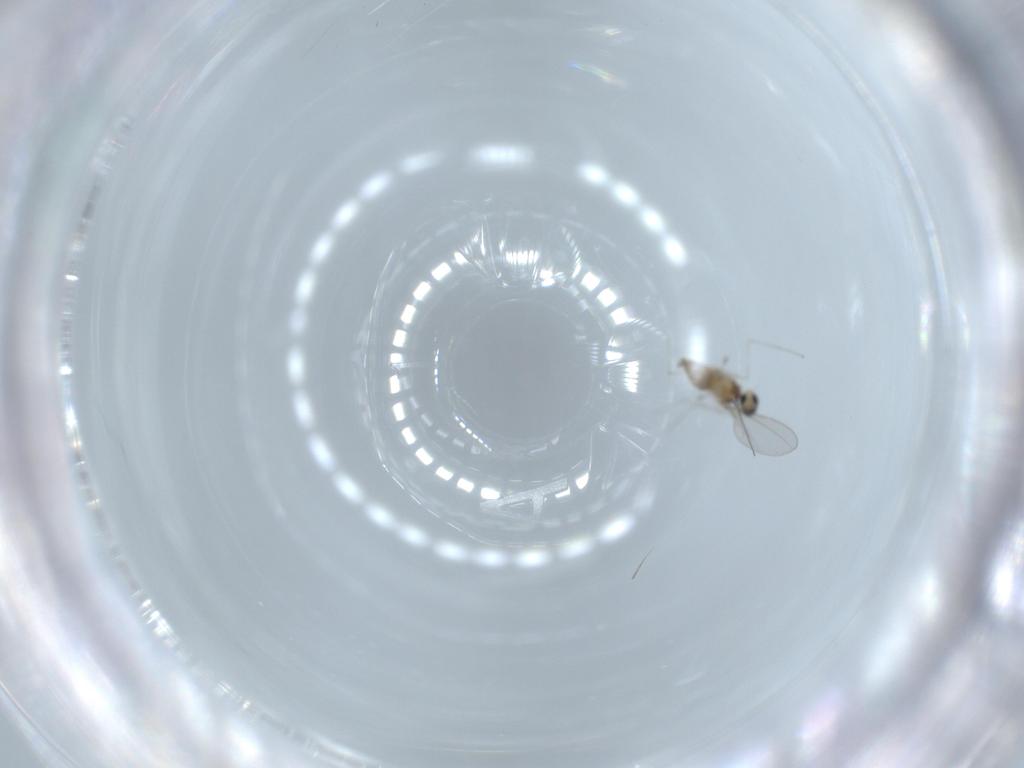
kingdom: Animalia
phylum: Arthropoda
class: Insecta
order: Diptera
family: Cecidomyiidae
